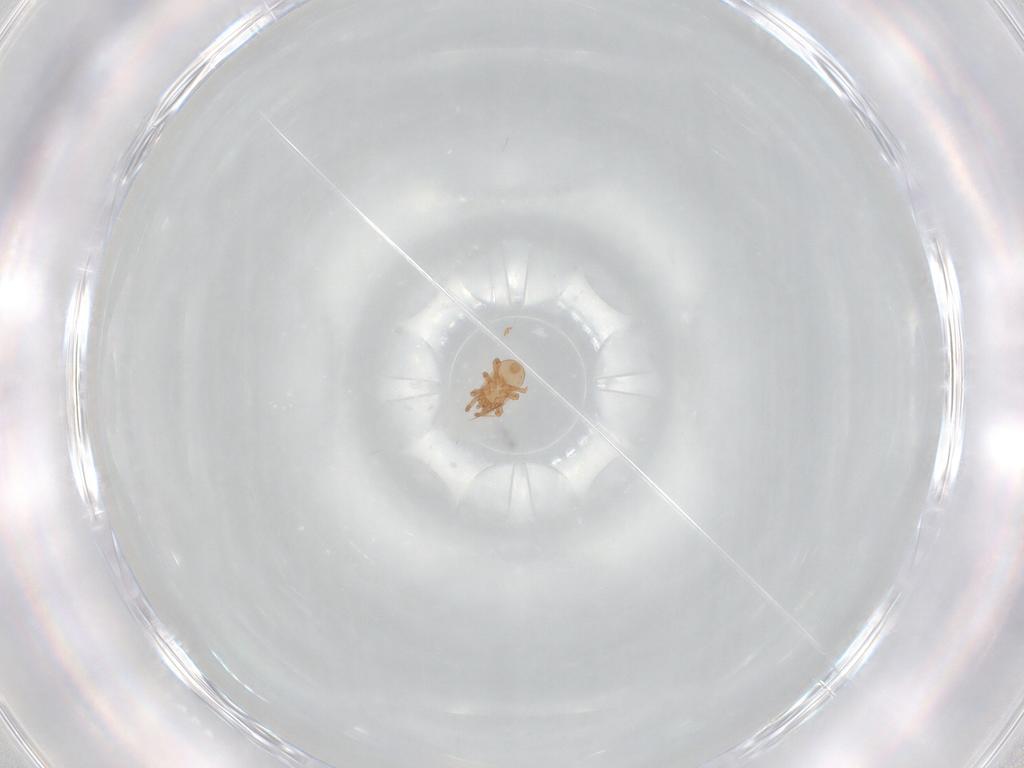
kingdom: Animalia
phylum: Arthropoda
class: Arachnida
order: Mesostigmata
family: Ascidae
